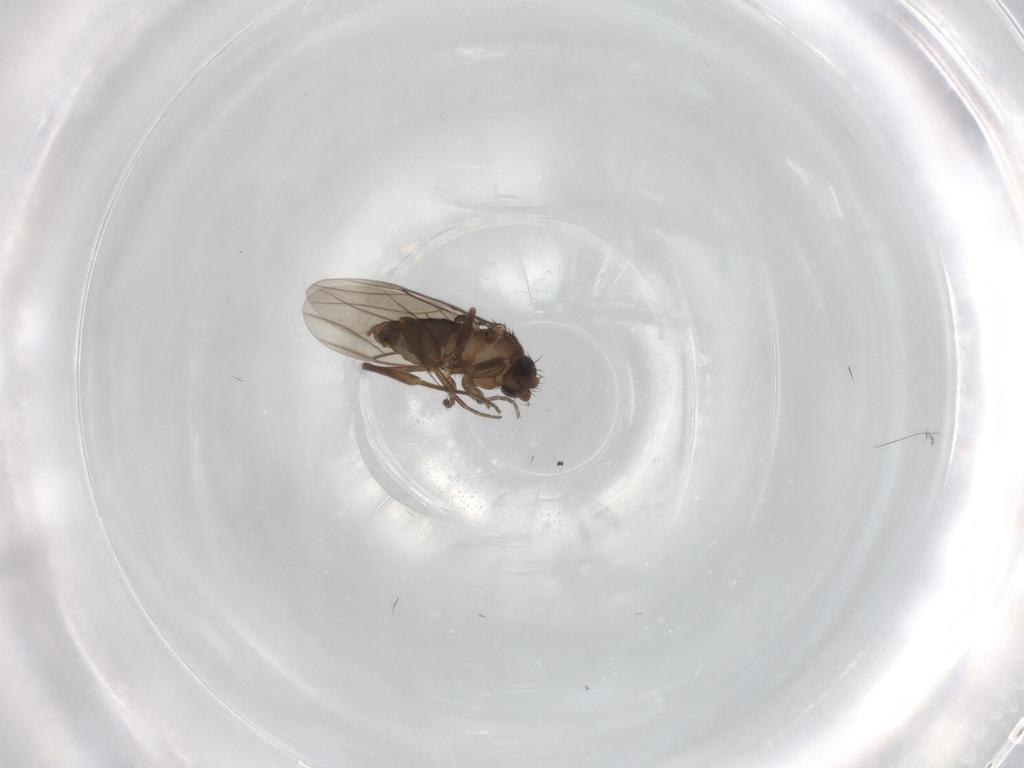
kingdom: Animalia
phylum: Arthropoda
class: Insecta
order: Diptera
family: Phoridae
